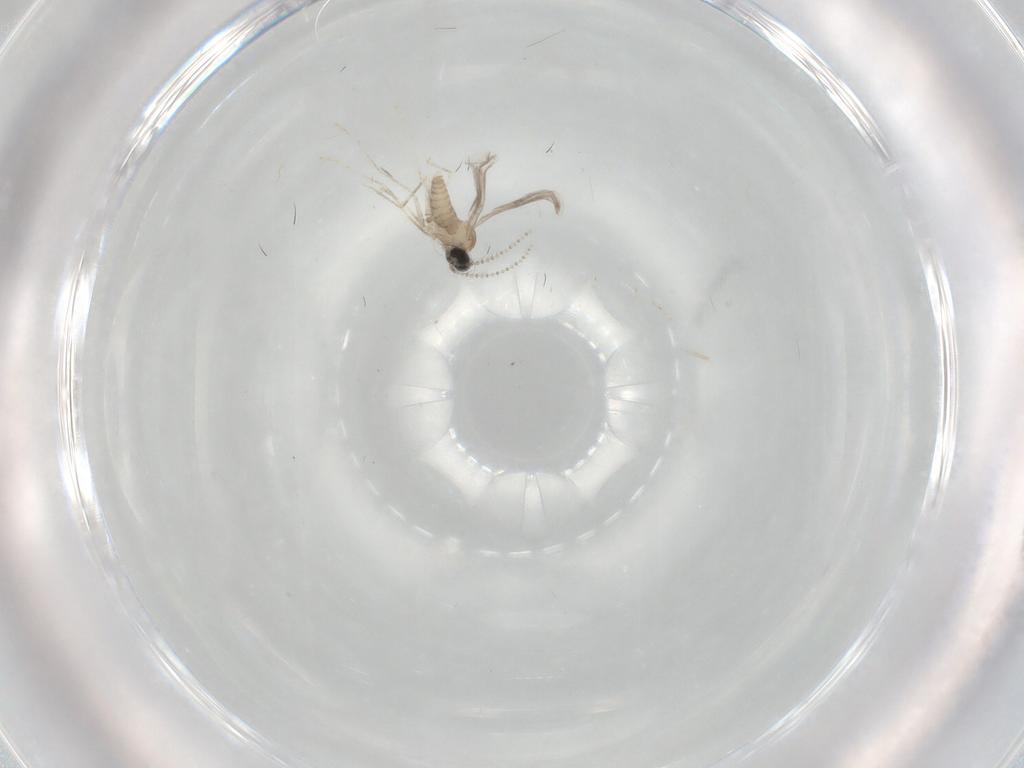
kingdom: Animalia
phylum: Arthropoda
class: Insecta
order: Diptera
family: Cecidomyiidae
